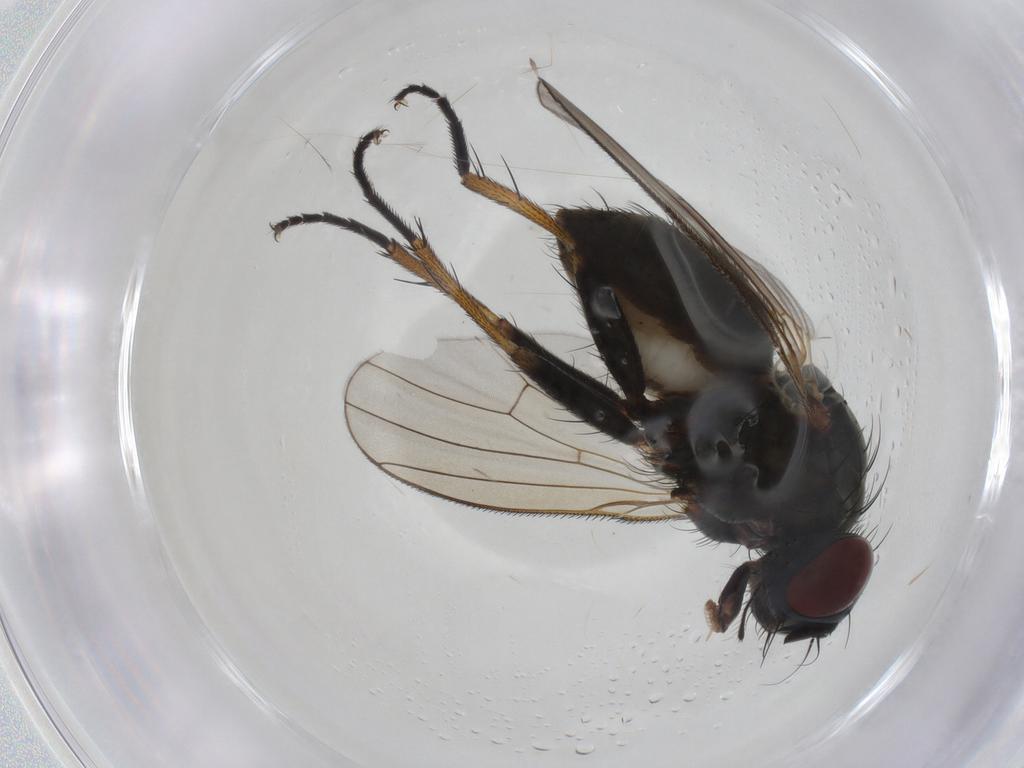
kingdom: Animalia
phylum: Arthropoda
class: Insecta
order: Diptera
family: Muscidae
